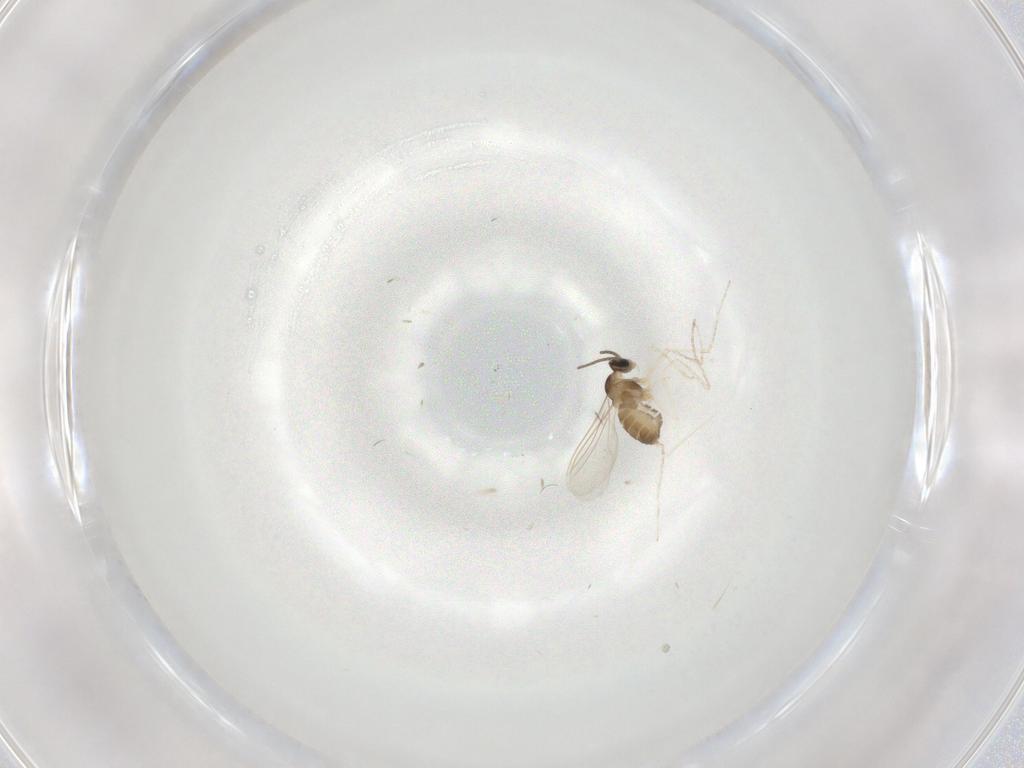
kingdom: Animalia
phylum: Arthropoda
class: Insecta
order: Diptera
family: Cecidomyiidae
